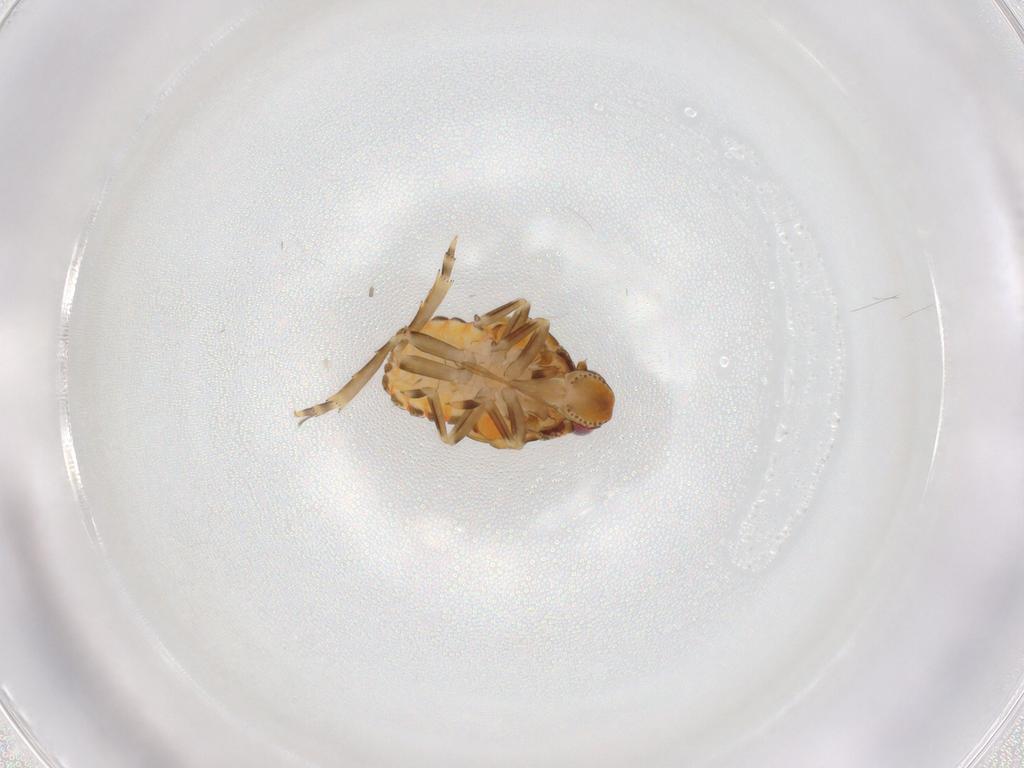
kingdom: Animalia
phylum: Arthropoda
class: Insecta
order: Hemiptera
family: Flatidae
